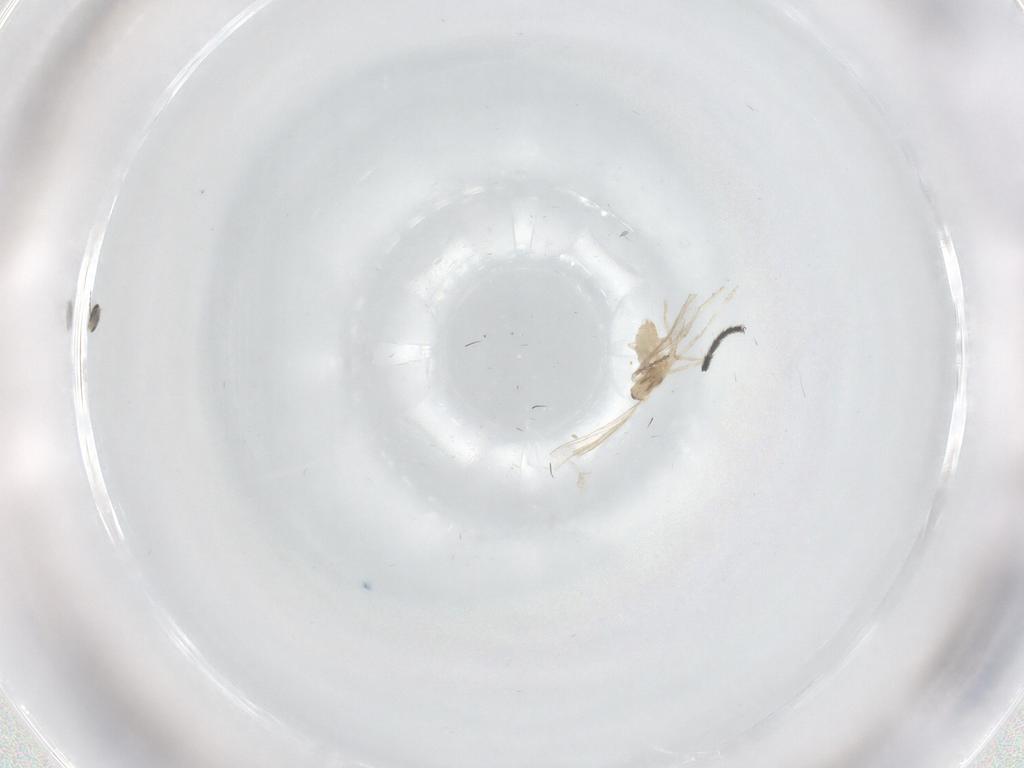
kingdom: Animalia
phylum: Arthropoda
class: Insecta
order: Diptera
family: Milichiidae
